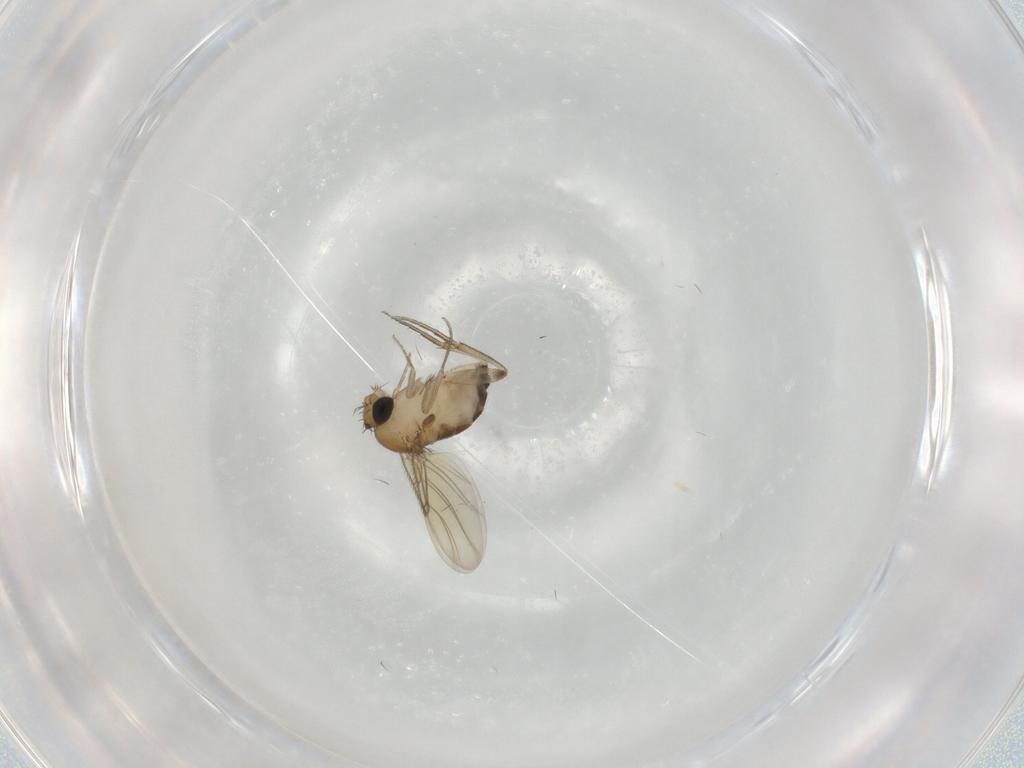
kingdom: Animalia
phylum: Arthropoda
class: Insecta
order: Diptera
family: Phoridae
